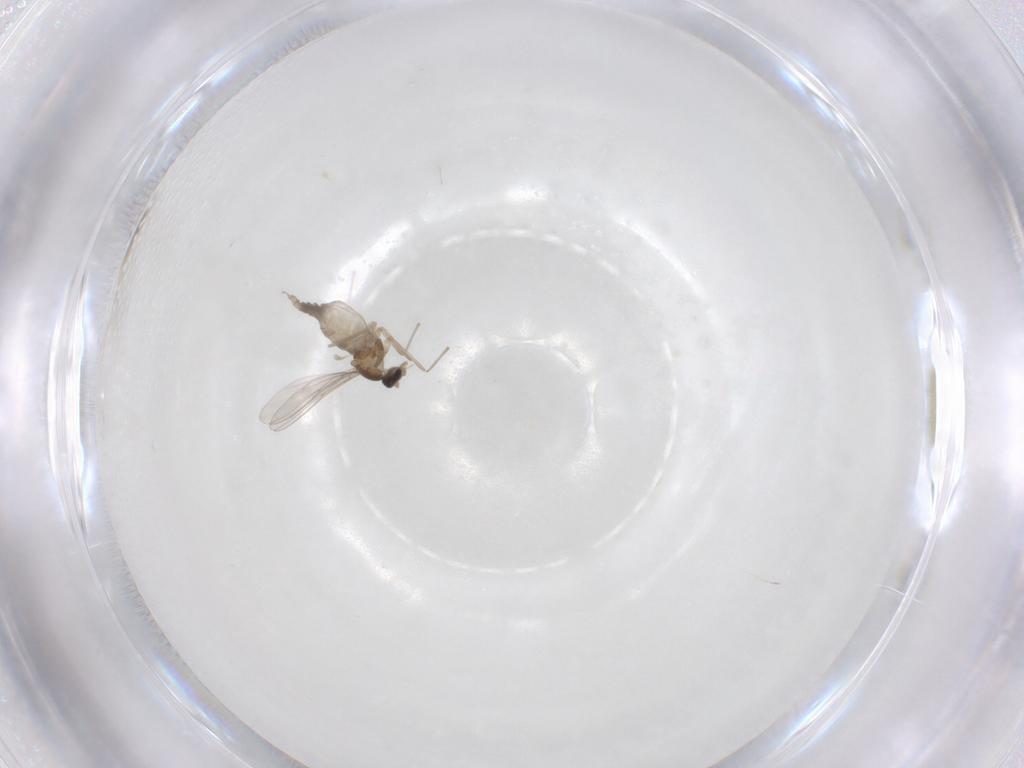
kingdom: Animalia
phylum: Arthropoda
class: Insecta
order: Diptera
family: Cecidomyiidae
